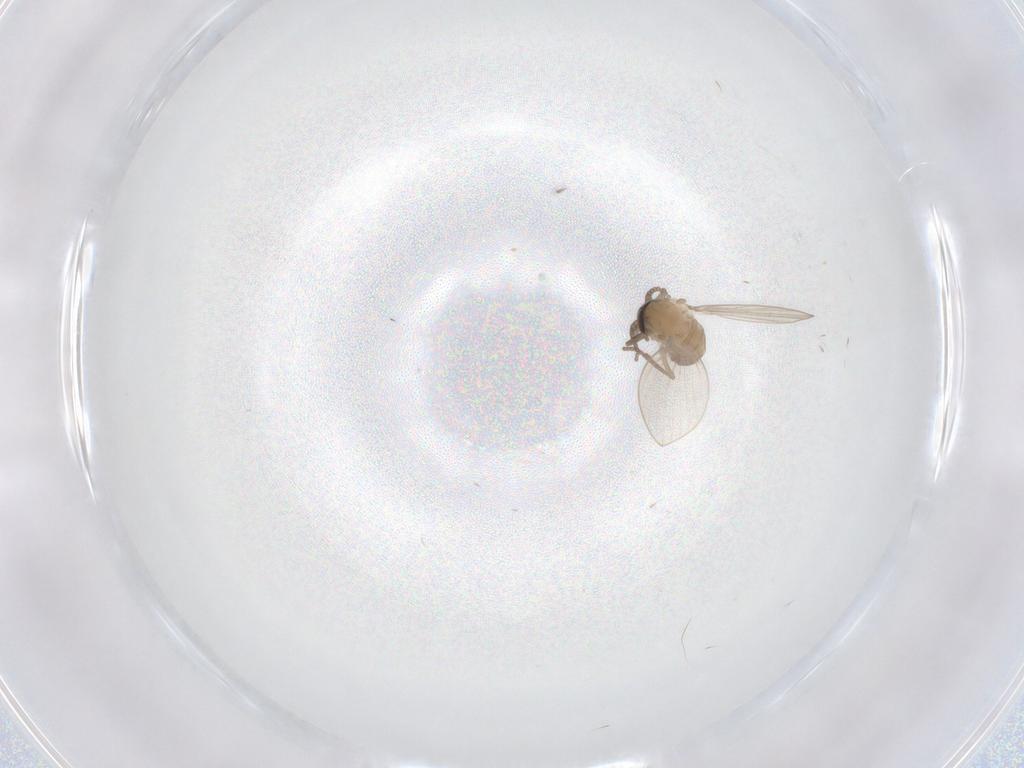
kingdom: Animalia
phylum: Arthropoda
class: Insecta
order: Diptera
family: Psychodidae
